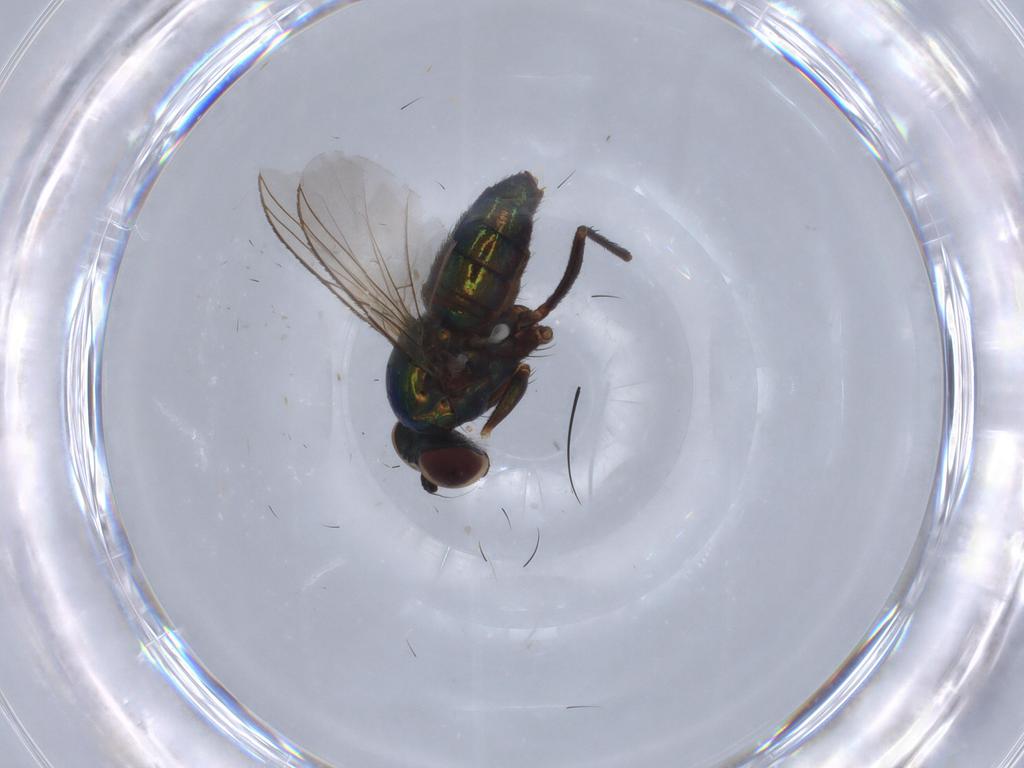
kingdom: Animalia
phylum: Arthropoda
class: Insecta
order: Diptera
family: Dolichopodidae
